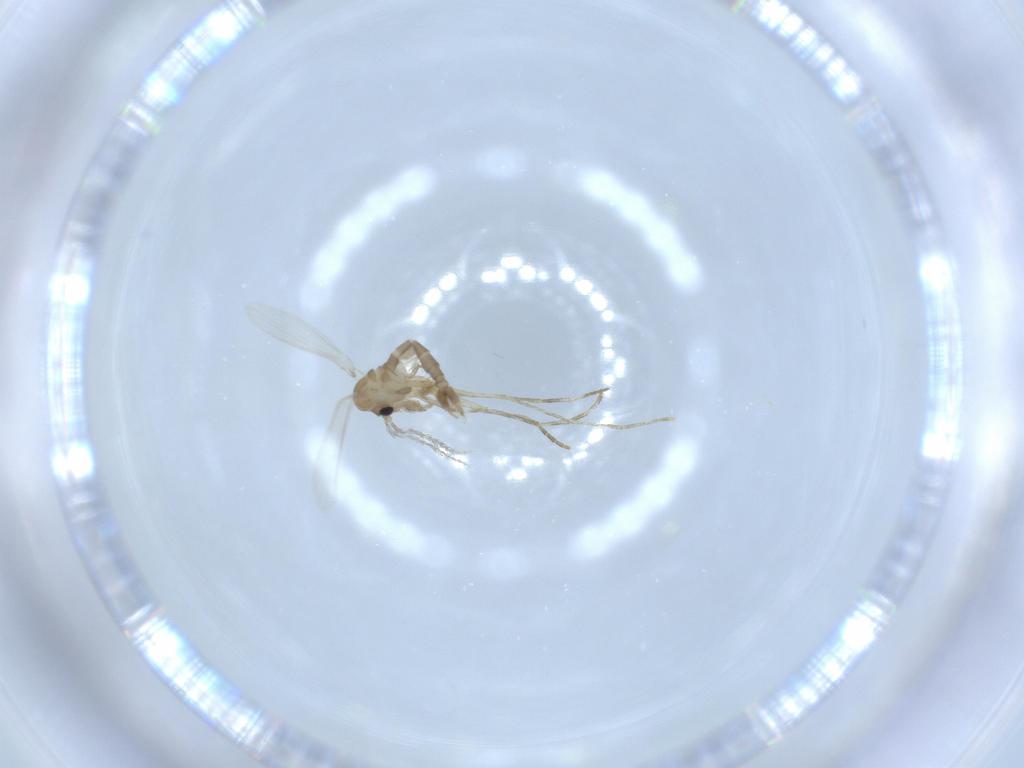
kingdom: Animalia
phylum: Arthropoda
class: Insecta
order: Diptera
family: Psychodidae
